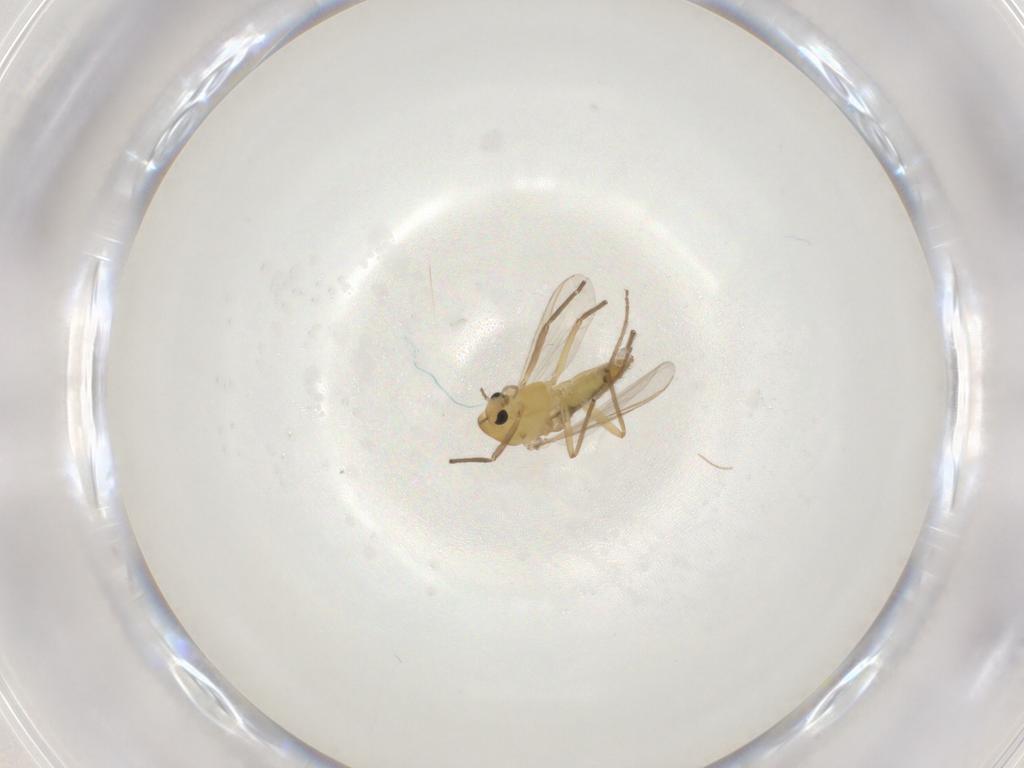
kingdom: Animalia
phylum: Arthropoda
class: Insecta
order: Diptera
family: Chironomidae
